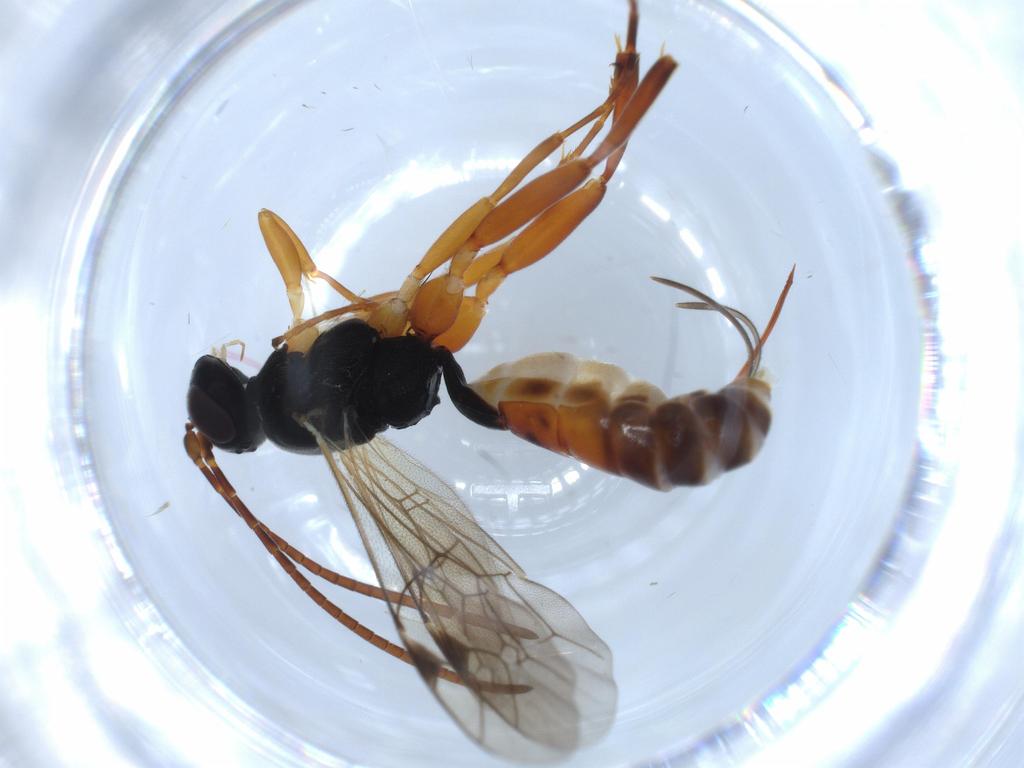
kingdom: Animalia
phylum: Arthropoda
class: Insecta
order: Hymenoptera
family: Ichneumonidae
